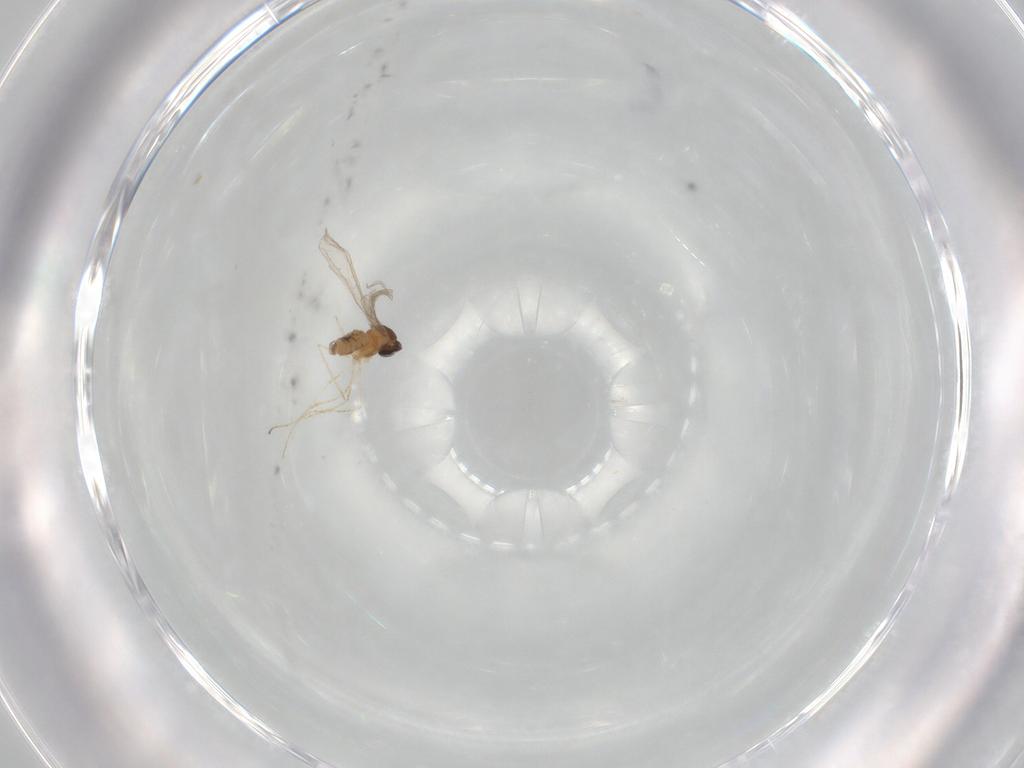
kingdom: Animalia
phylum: Arthropoda
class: Insecta
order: Diptera
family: Cecidomyiidae
